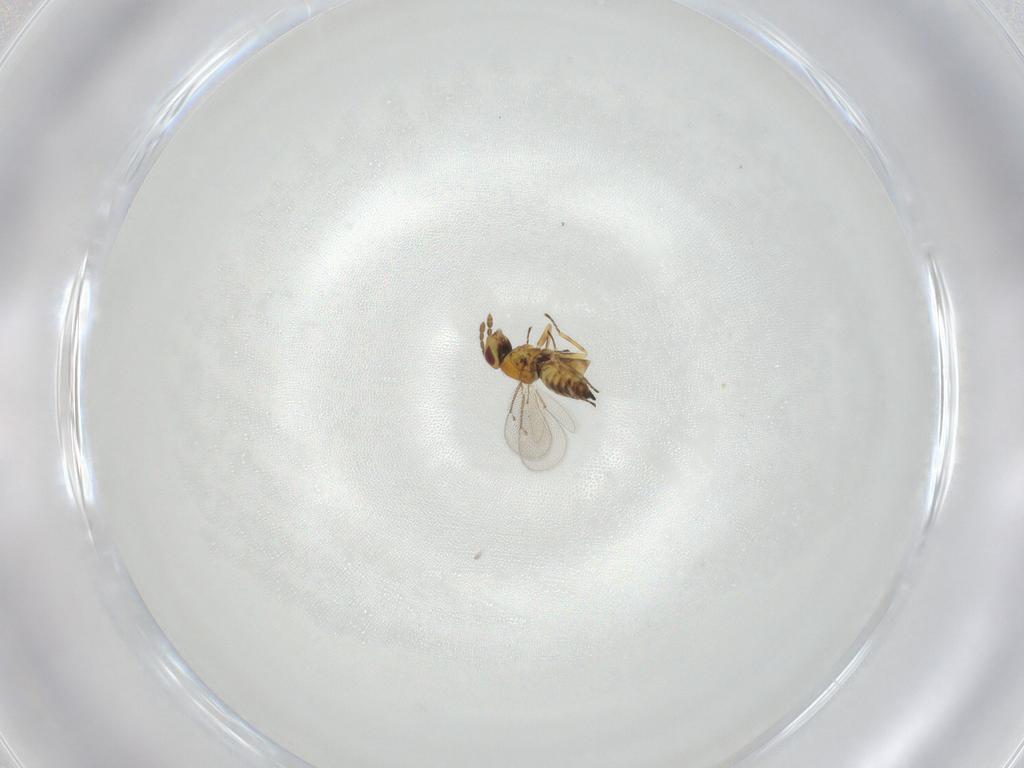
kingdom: Animalia
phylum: Arthropoda
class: Insecta
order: Hymenoptera
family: Eulophidae
